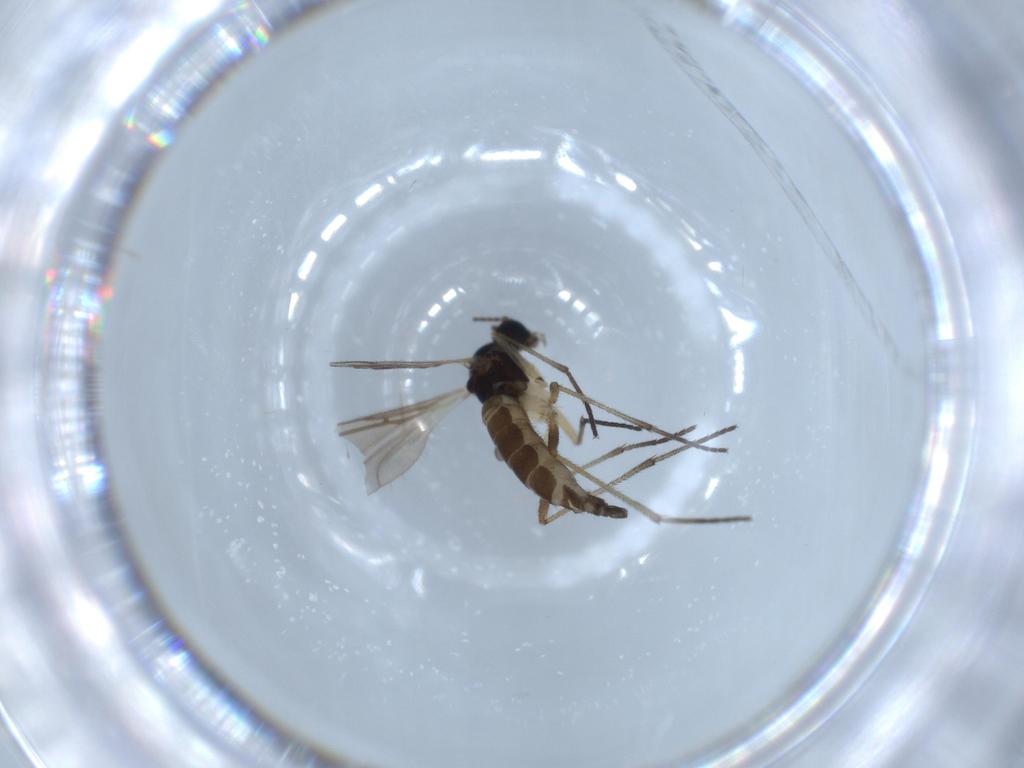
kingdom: Animalia
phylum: Arthropoda
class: Insecta
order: Diptera
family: Sciaridae
